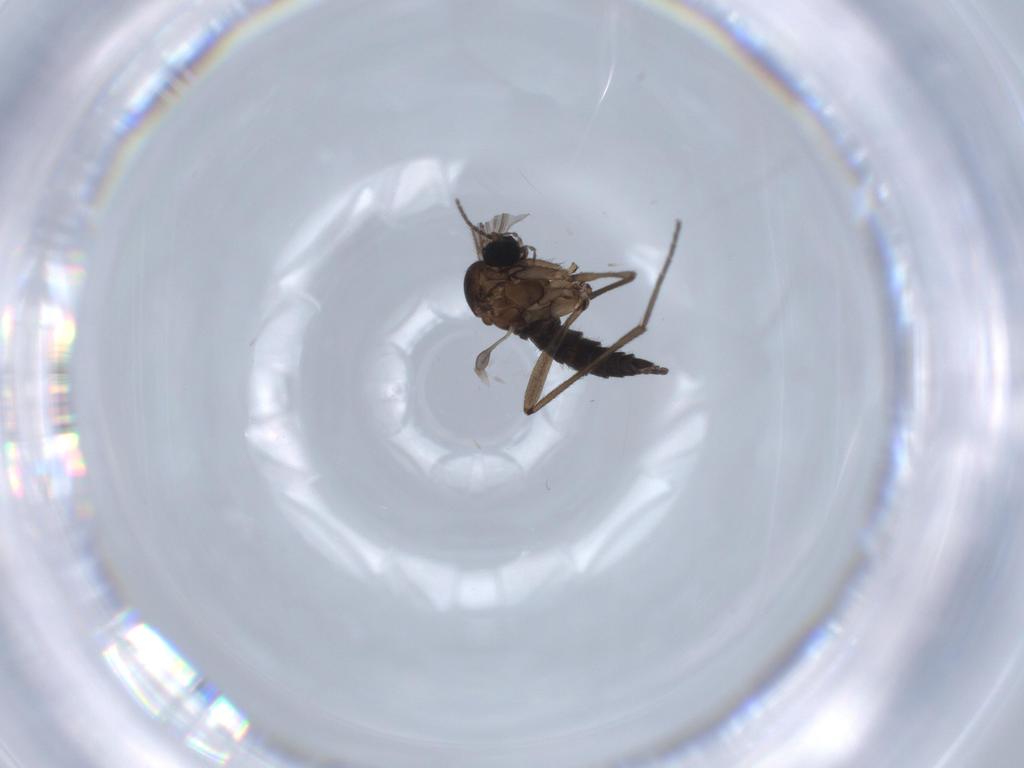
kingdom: Animalia
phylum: Arthropoda
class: Insecta
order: Diptera
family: Sciaridae
